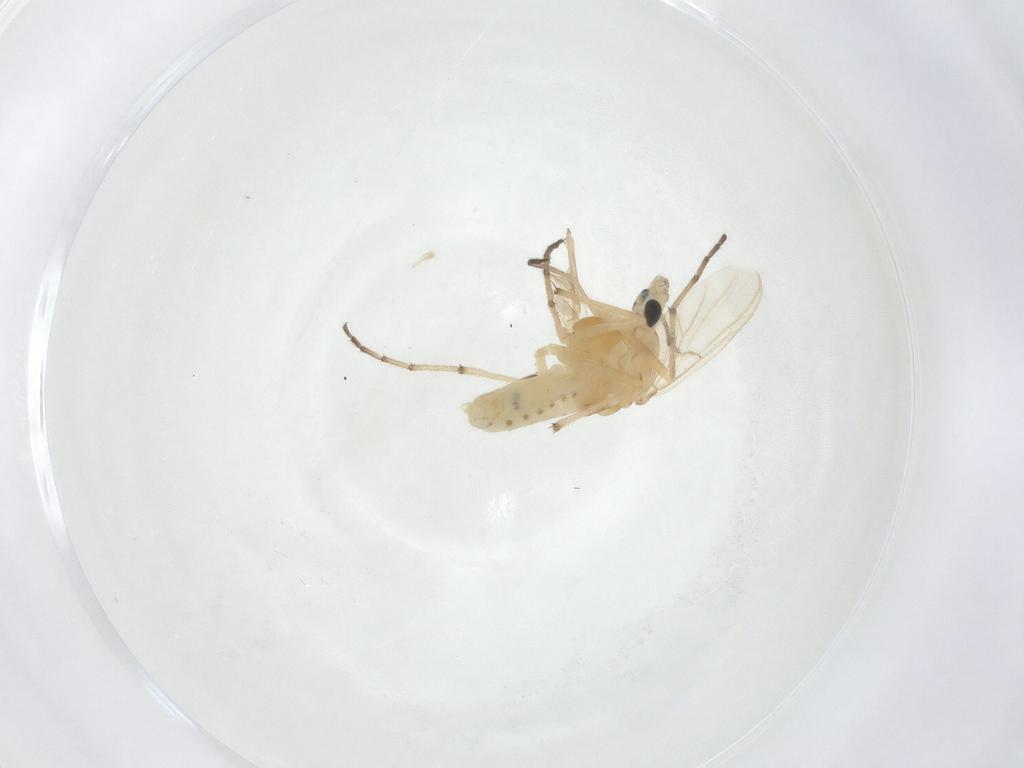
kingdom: Animalia
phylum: Arthropoda
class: Insecta
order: Diptera
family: Chironomidae
